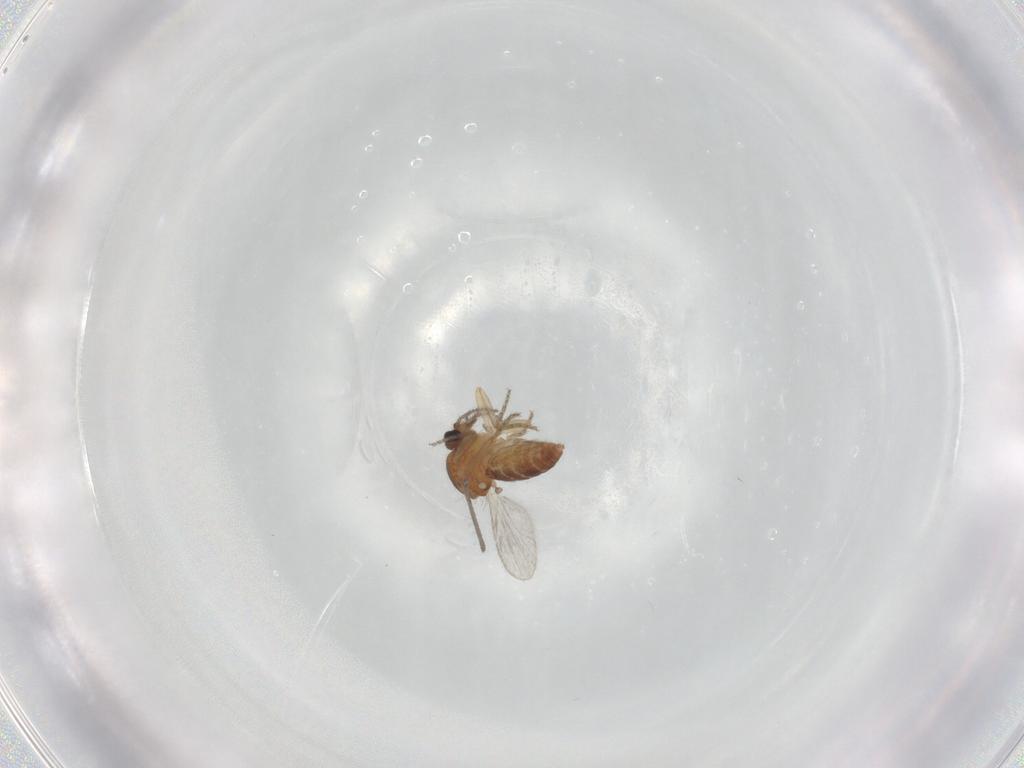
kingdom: Animalia
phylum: Arthropoda
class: Insecta
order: Diptera
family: Ceratopogonidae
